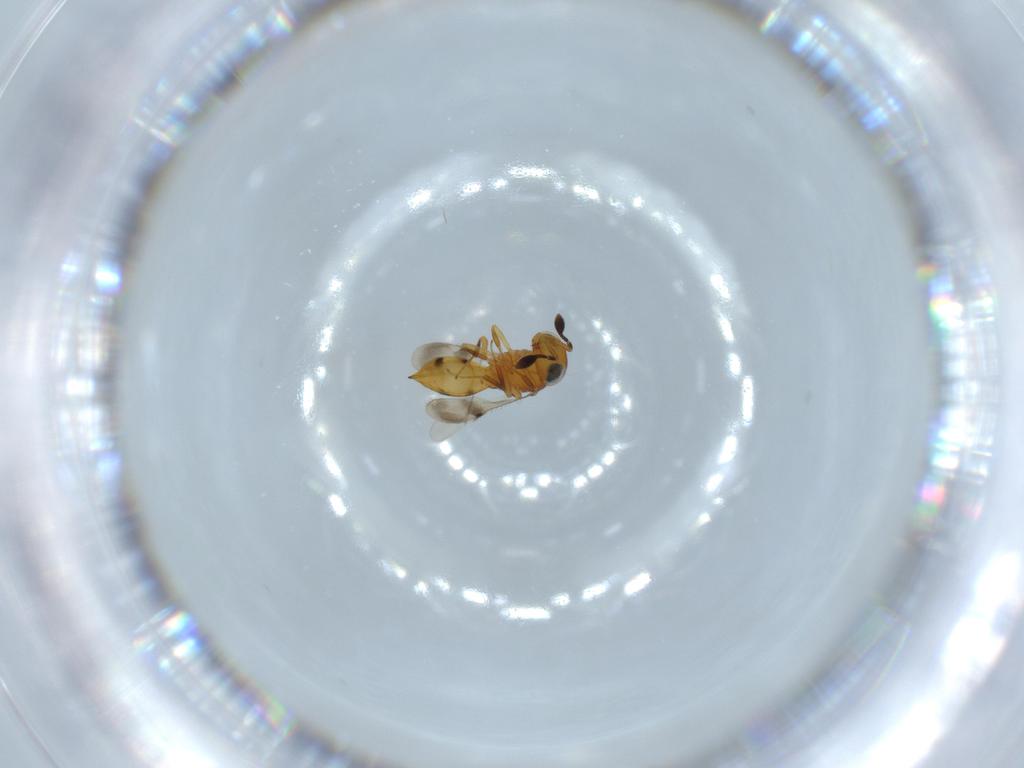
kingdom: Animalia
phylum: Arthropoda
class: Insecta
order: Hymenoptera
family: Scelionidae
